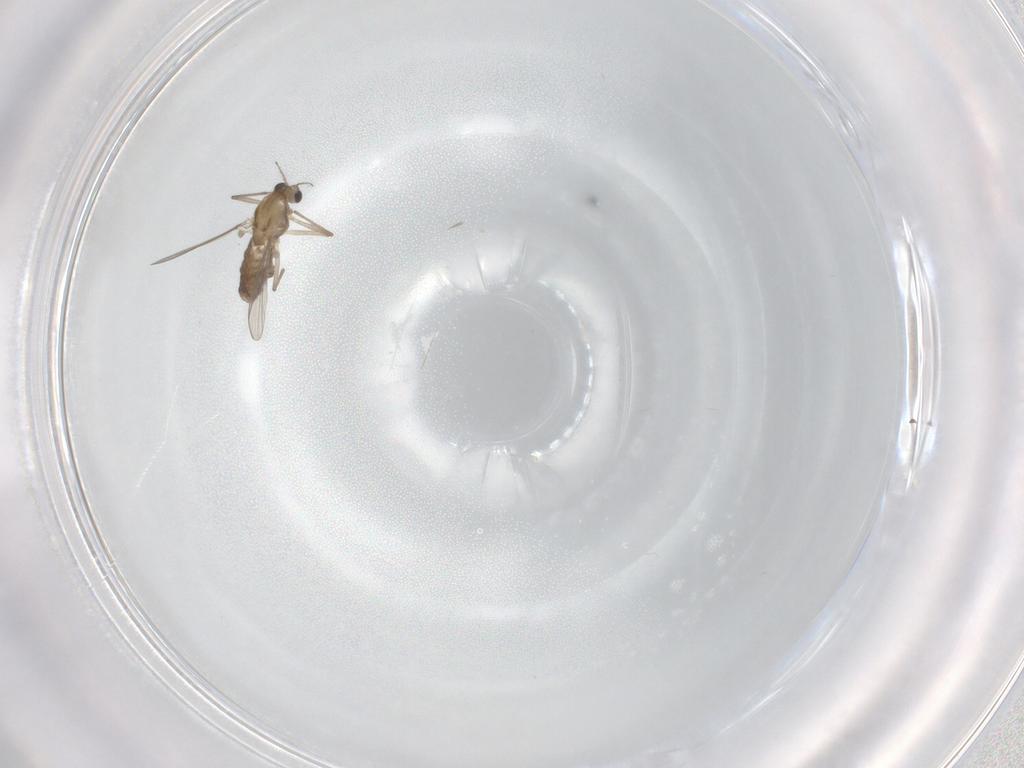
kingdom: Animalia
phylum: Arthropoda
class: Insecta
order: Diptera
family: Chironomidae
